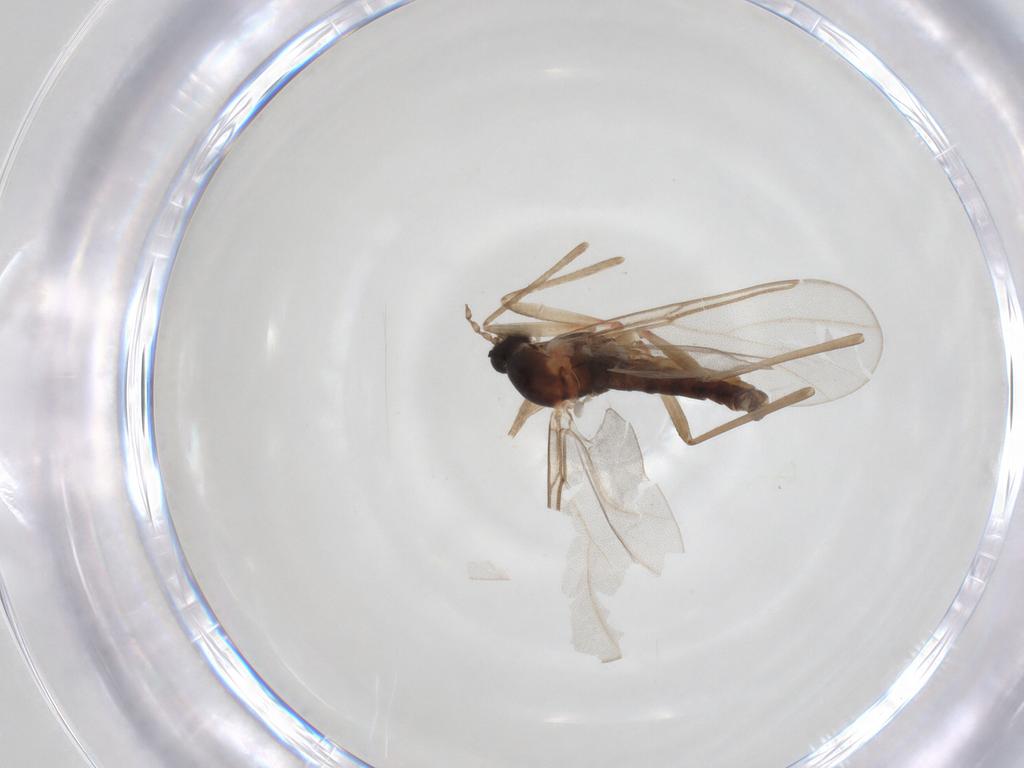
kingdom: Animalia
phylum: Arthropoda
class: Insecta
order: Diptera
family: Cecidomyiidae
